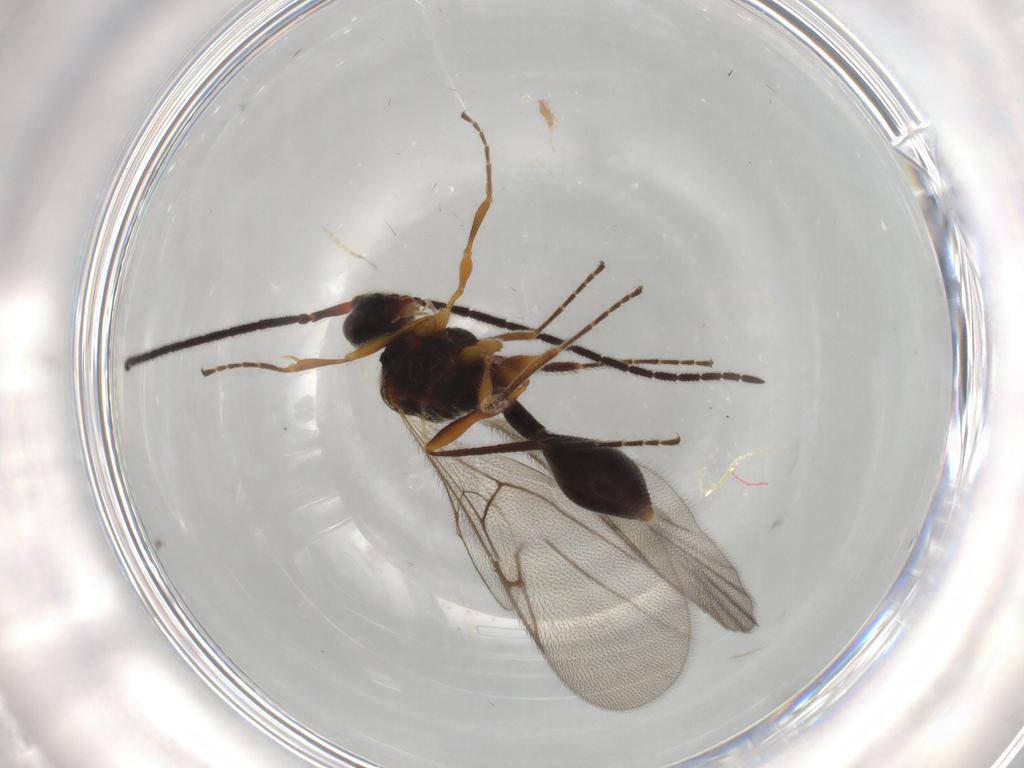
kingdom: Animalia
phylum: Arthropoda
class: Insecta
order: Hymenoptera
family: Diapriidae
